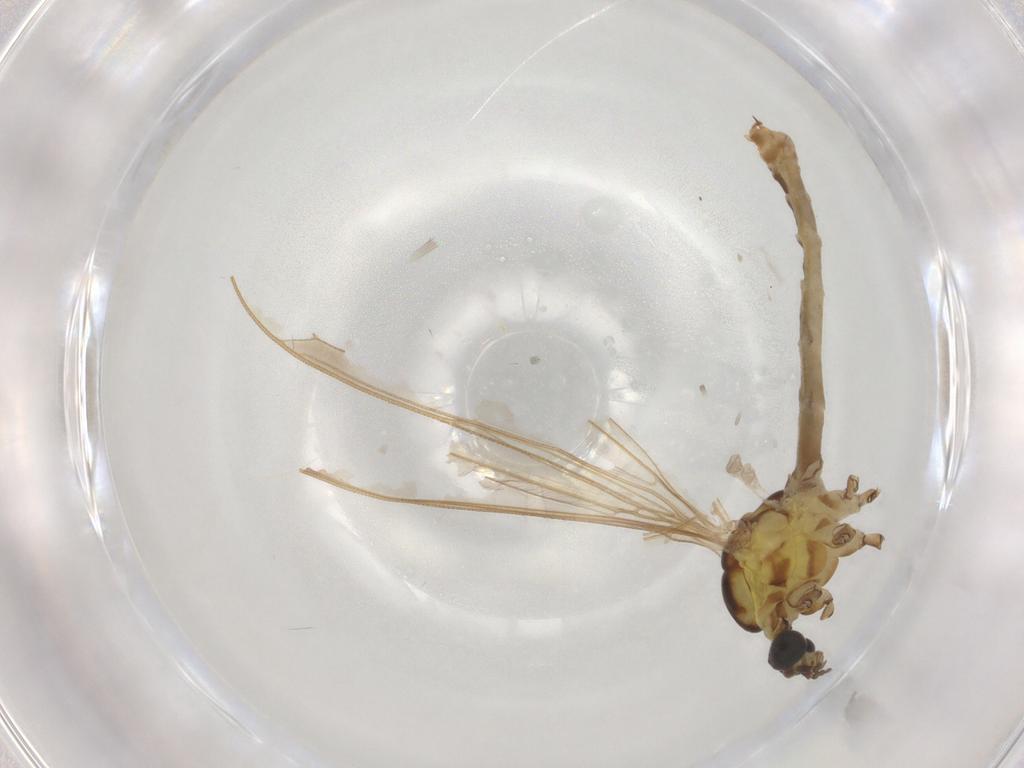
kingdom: Animalia
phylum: Arthropoda
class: Insecta
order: Diptera
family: Limoniidae
